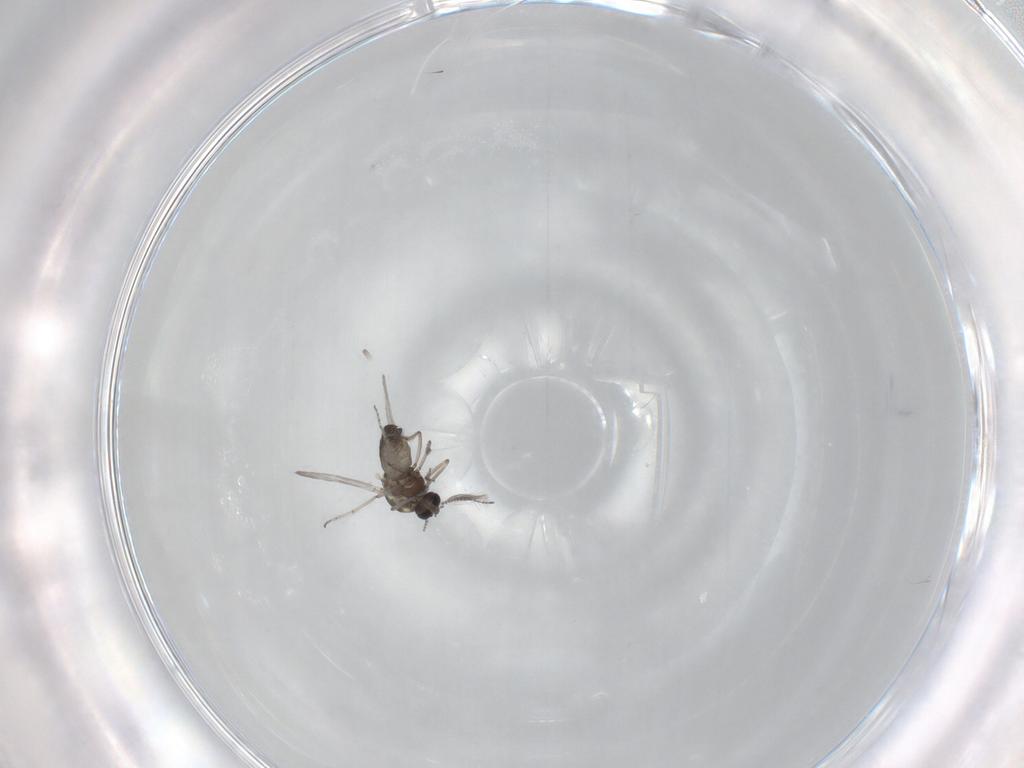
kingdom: Animalia
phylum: Arthropoda
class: Insecta
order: Diptera
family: Ceratopogonidae
